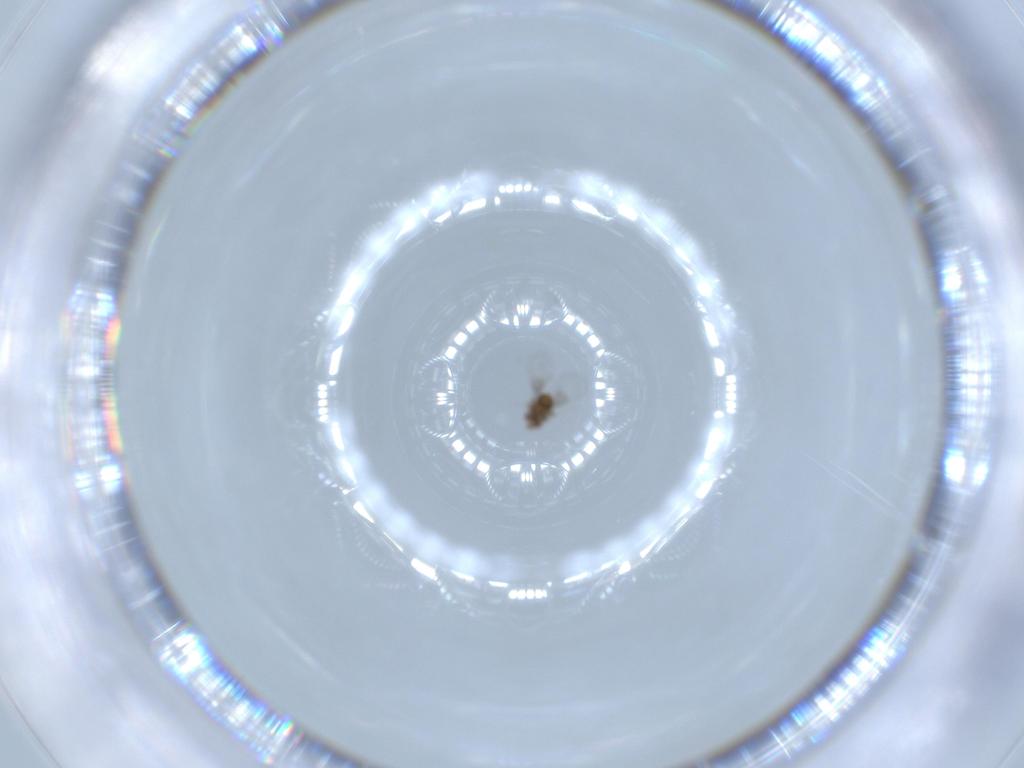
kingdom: Animalia
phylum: Arthropoda
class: Insecta
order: Hymenoptera
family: Trichogrammatidae
